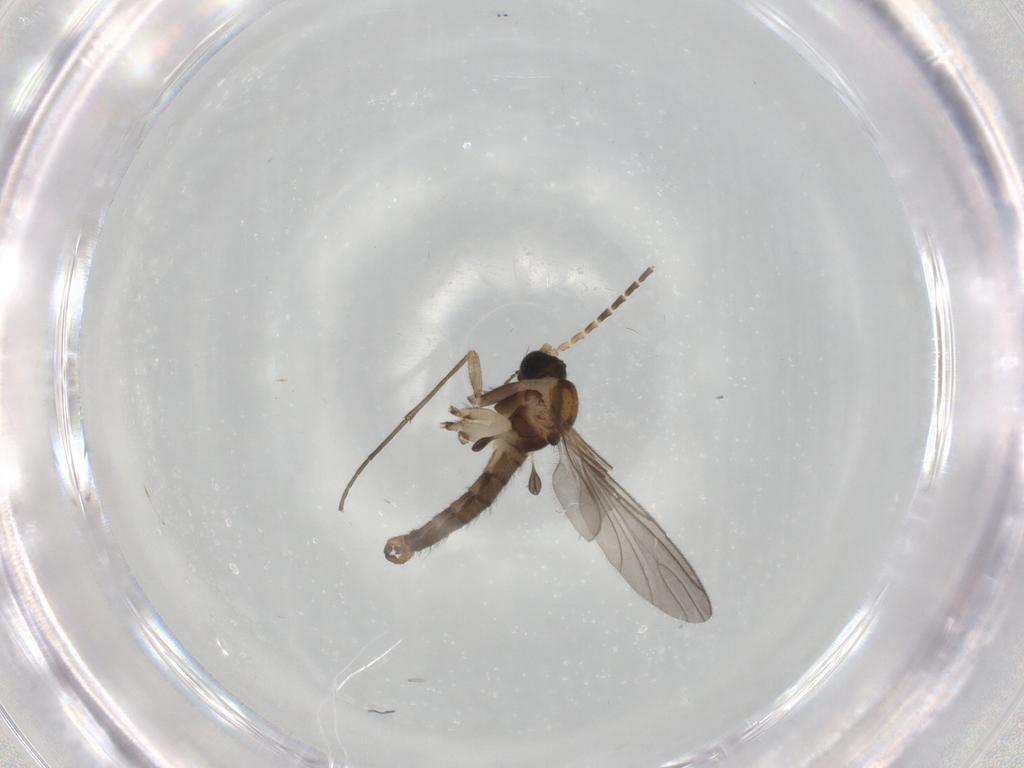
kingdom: Animalia
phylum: Arthropoda
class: Insecta
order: Diptera
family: Sciaridae
